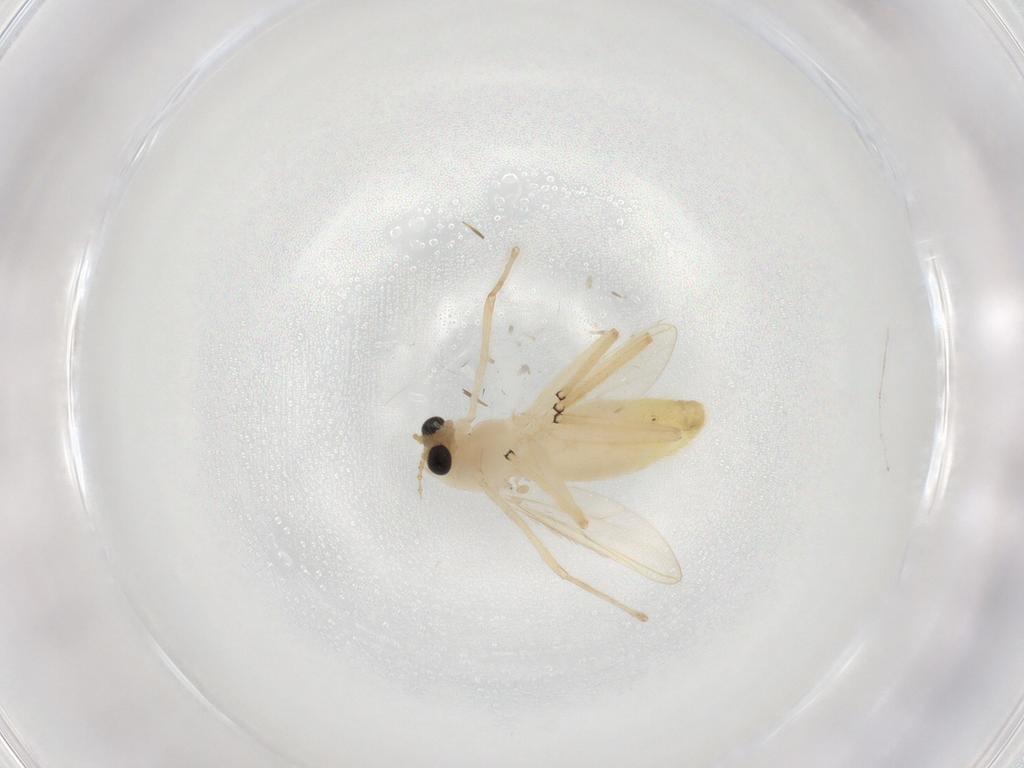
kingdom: Animalia
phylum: Arthropoda
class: Insecta
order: Diptera
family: Chironomidae
